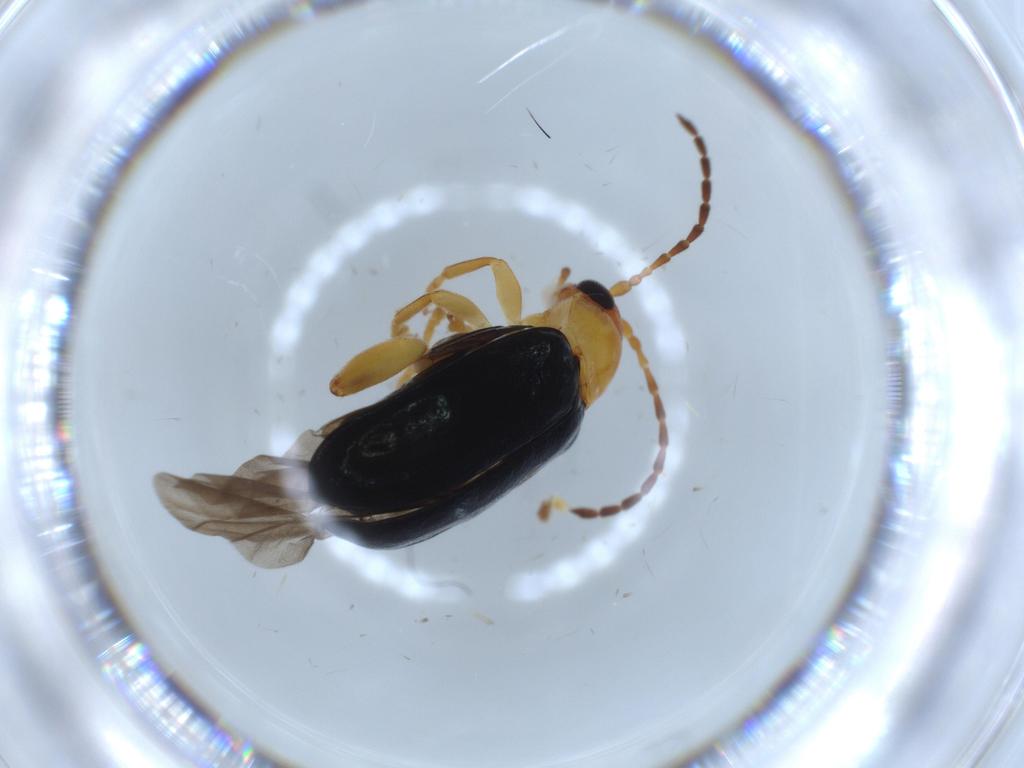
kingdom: Animalia
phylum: Arthropoda
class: Insecta
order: Coleoptera
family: Chrysomelidae
